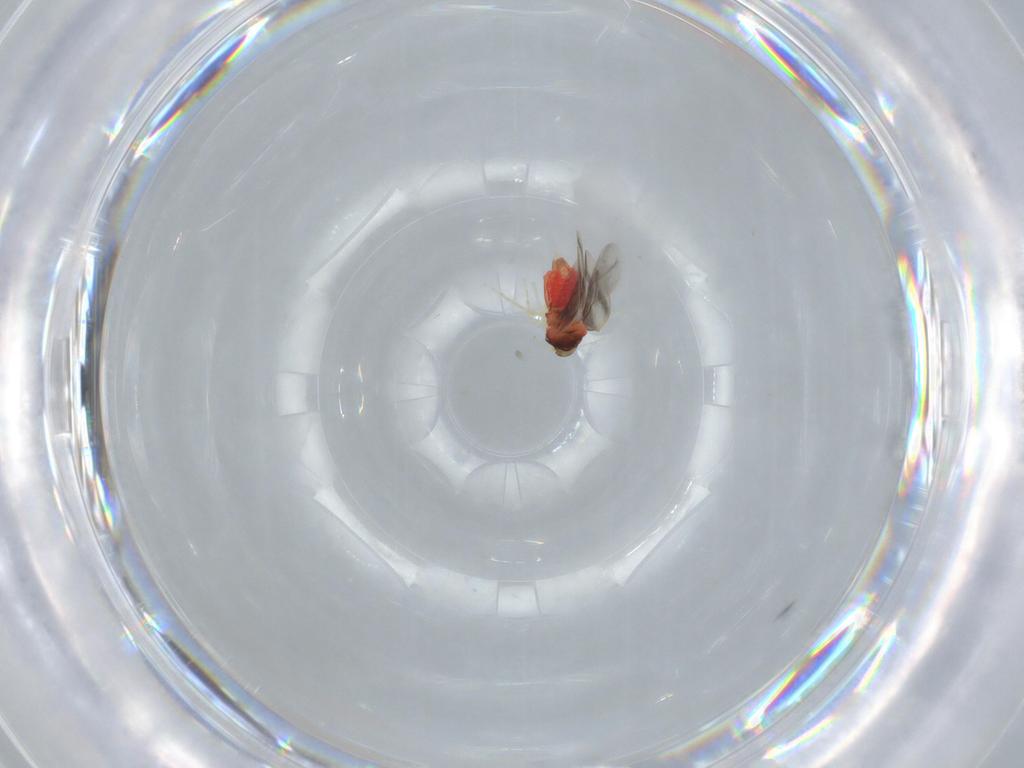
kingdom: Animalia
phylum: Arthropoda
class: Insecta
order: Hemiptera
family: Aleyrodidae
